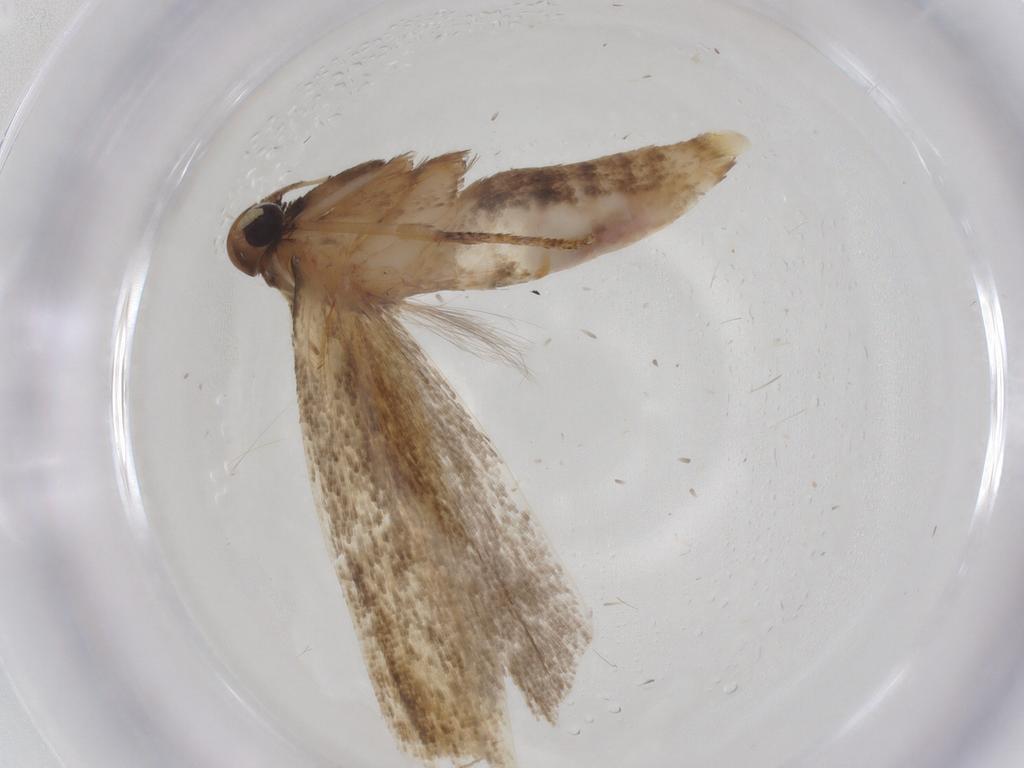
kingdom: Animalia
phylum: Arthropoda
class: Insecta
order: Lepidoptera
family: Gelechiidae
